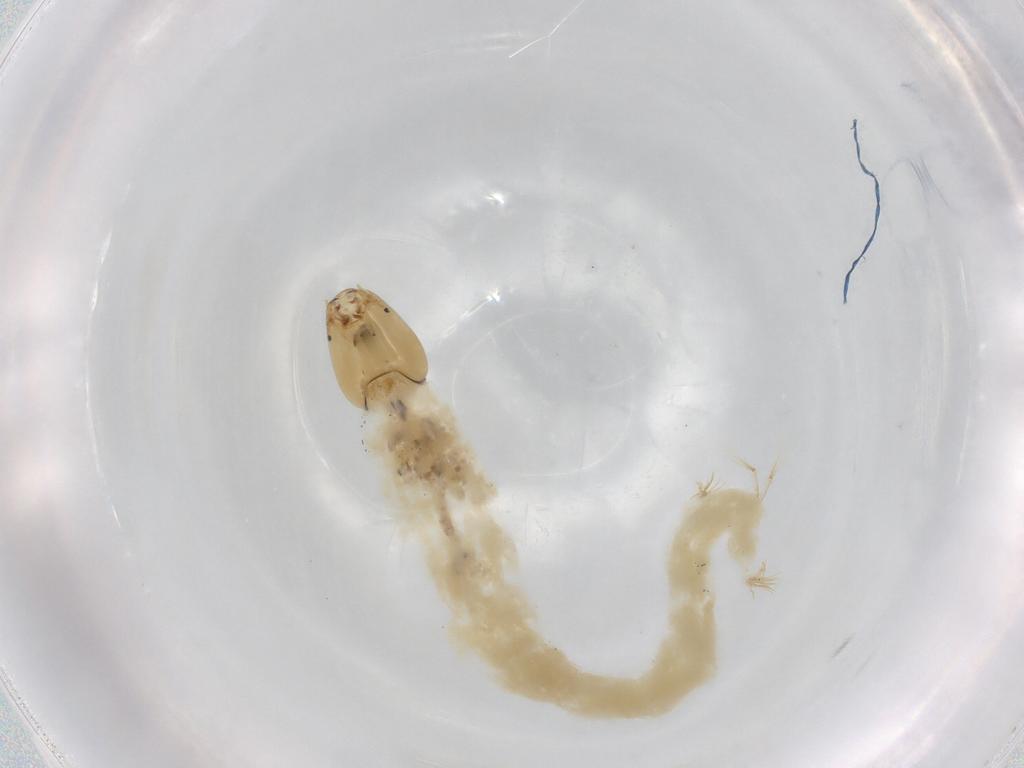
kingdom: Animalia
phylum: Arthropoda
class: Insecta
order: Diptera
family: Chironomidae
